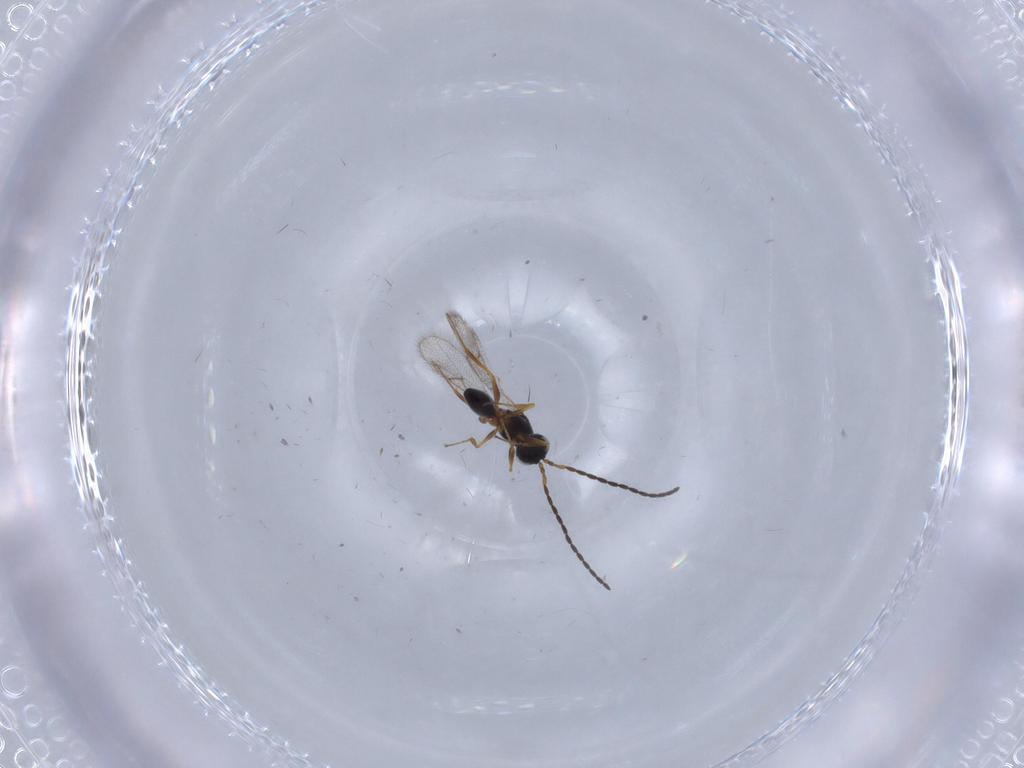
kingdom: Animalia
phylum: Arthropoda
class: Insecta
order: Hymenoptera
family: Figitidae
